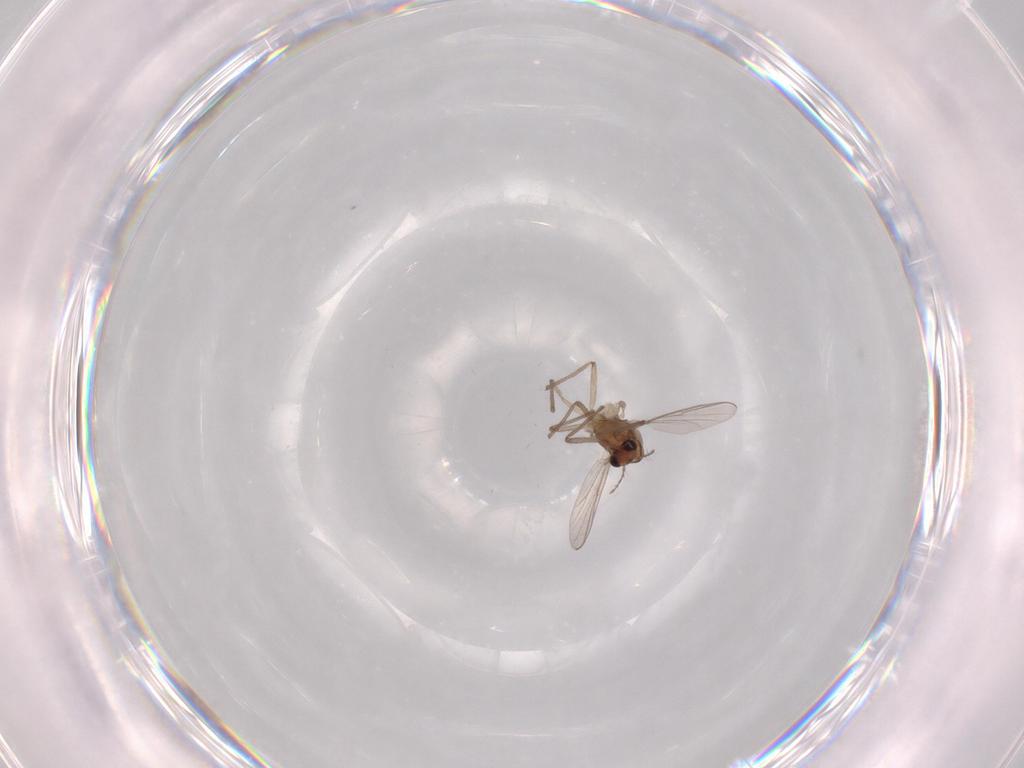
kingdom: Animalia
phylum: Arthropoda
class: Insecta
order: Diptera
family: Chironomidae
